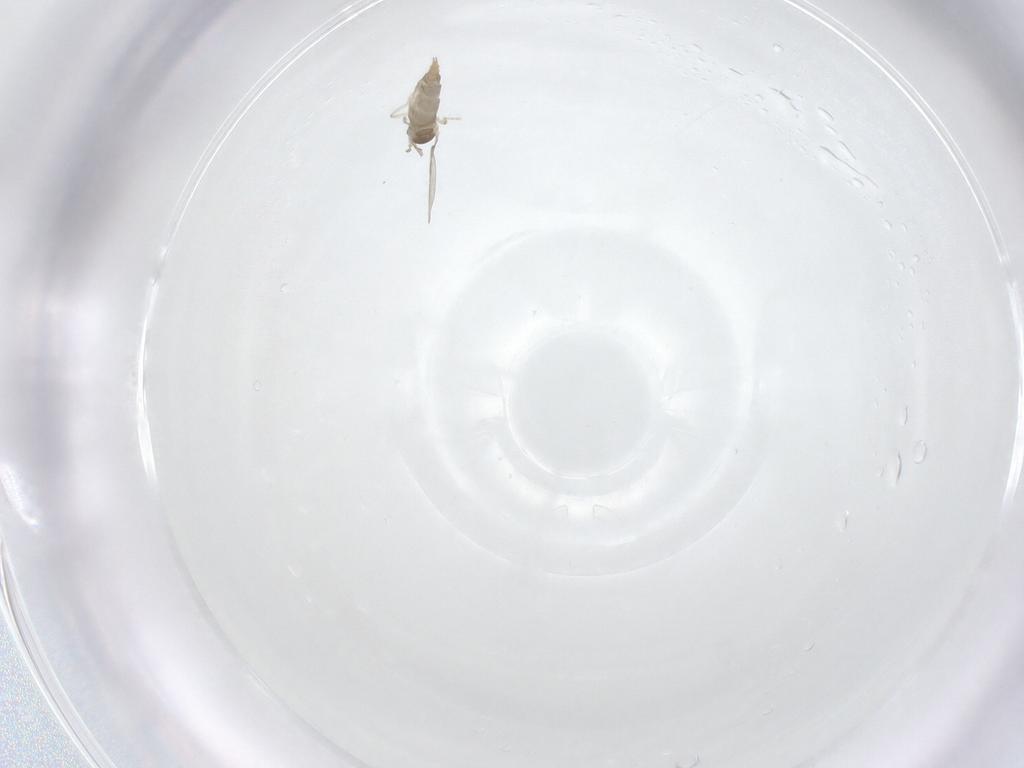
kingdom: Animalia
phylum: Arthropoda
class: Insecta
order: Diptera
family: Cecidomyiidae
